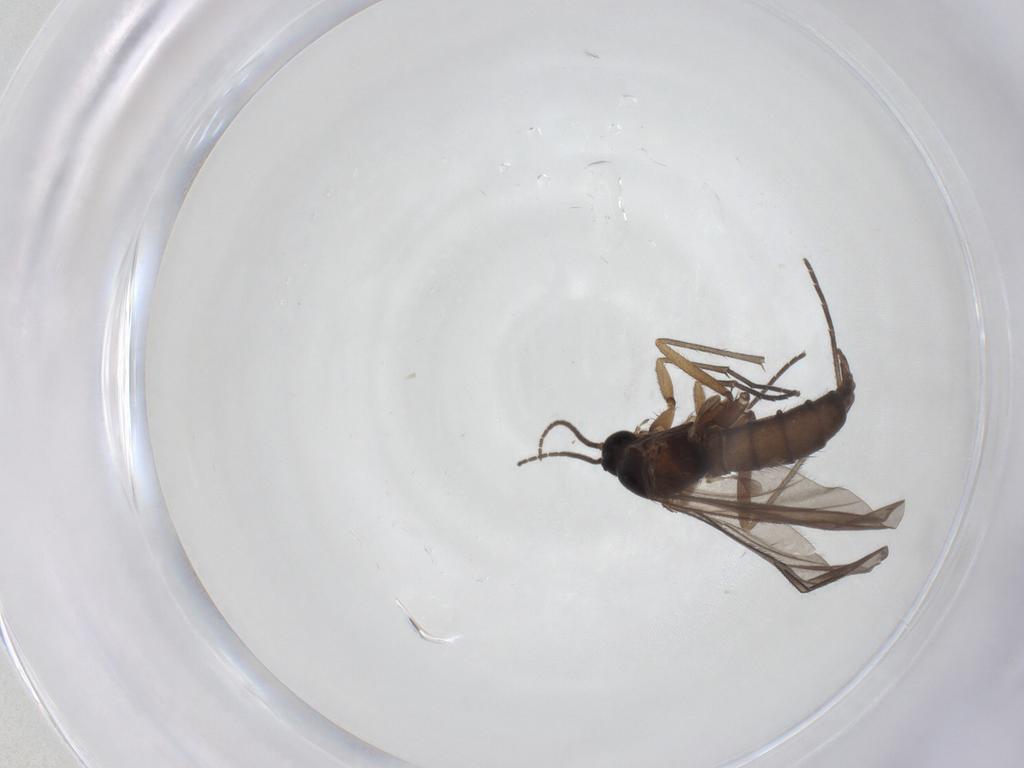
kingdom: Animalia
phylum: Arthropoda
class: Insecta
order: Diptera
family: Sciaridae
